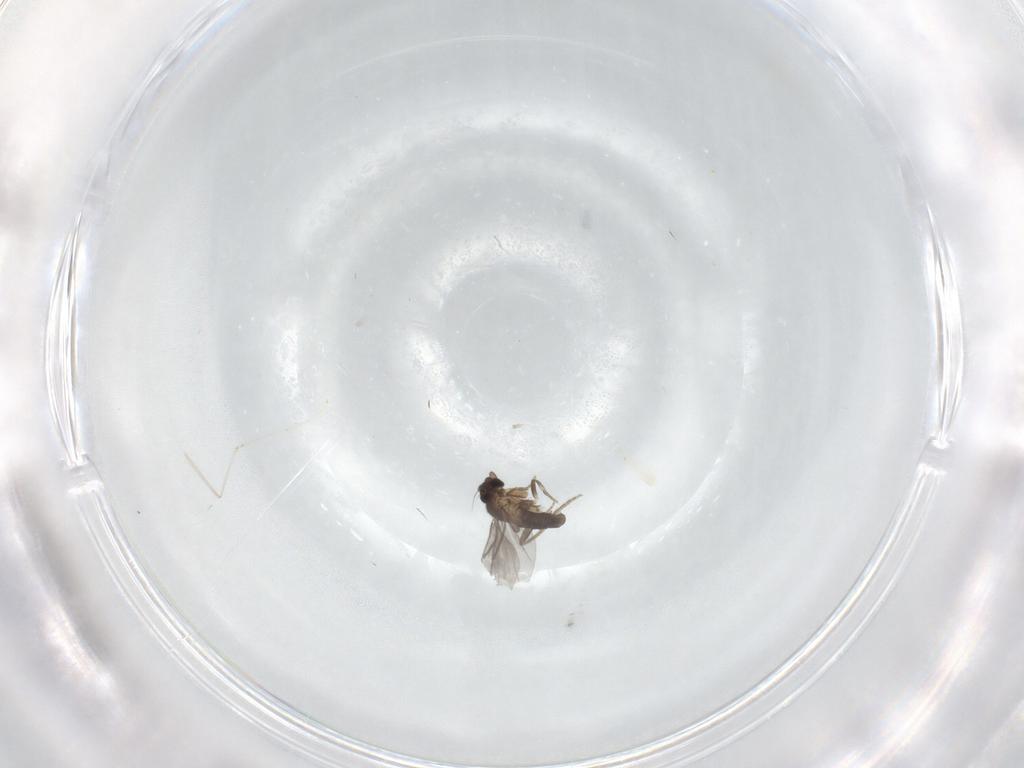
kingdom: Animalia
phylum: Arthropoda
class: Insecta
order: Diptera
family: Cecidomyiidae
